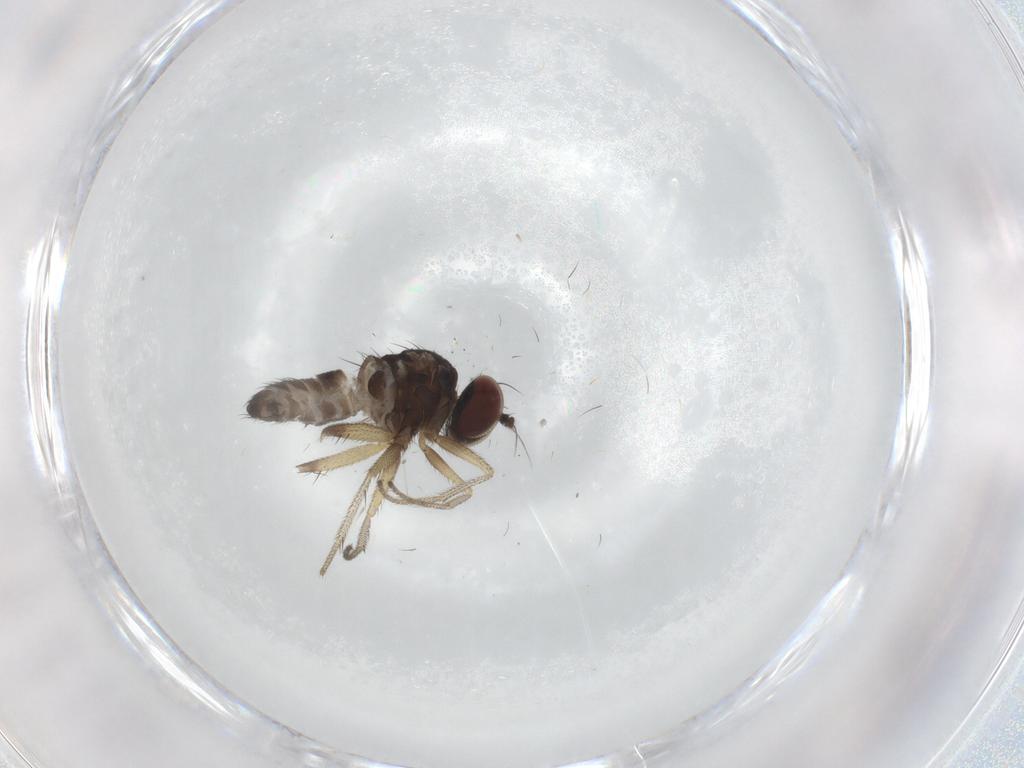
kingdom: Animalia
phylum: Arthropoda
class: Insecta
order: Diptera
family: Dolichopodidae
